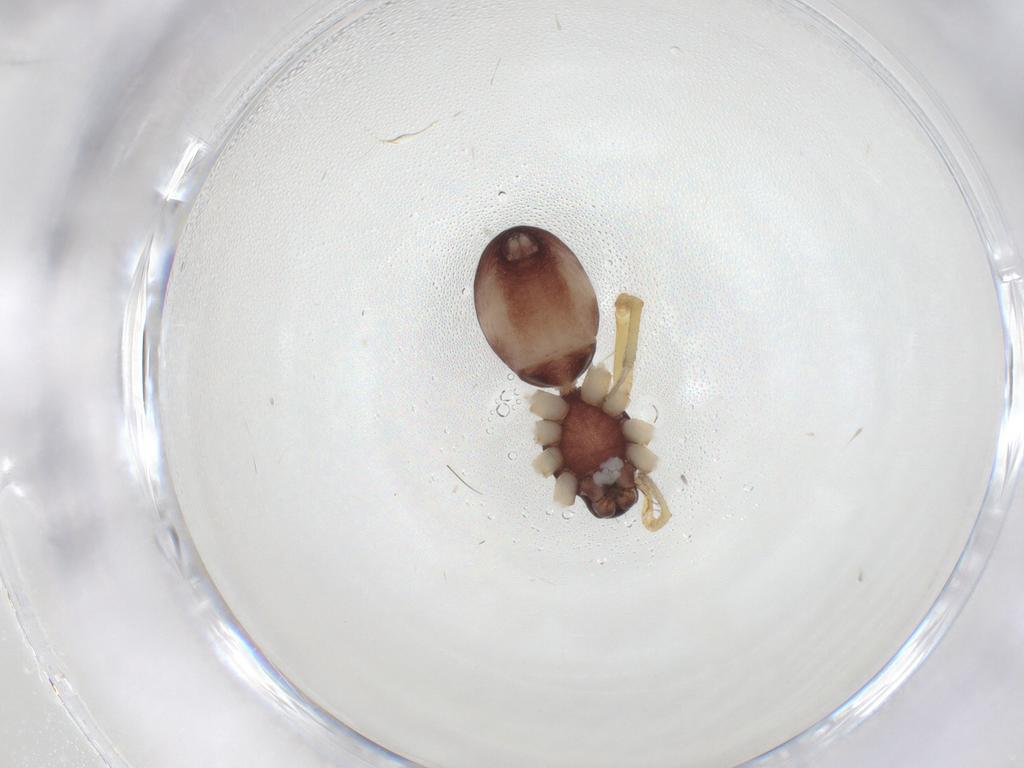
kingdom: Animalia
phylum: Arthropoda
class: Arachnida
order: Araneae
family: Corinnidae
